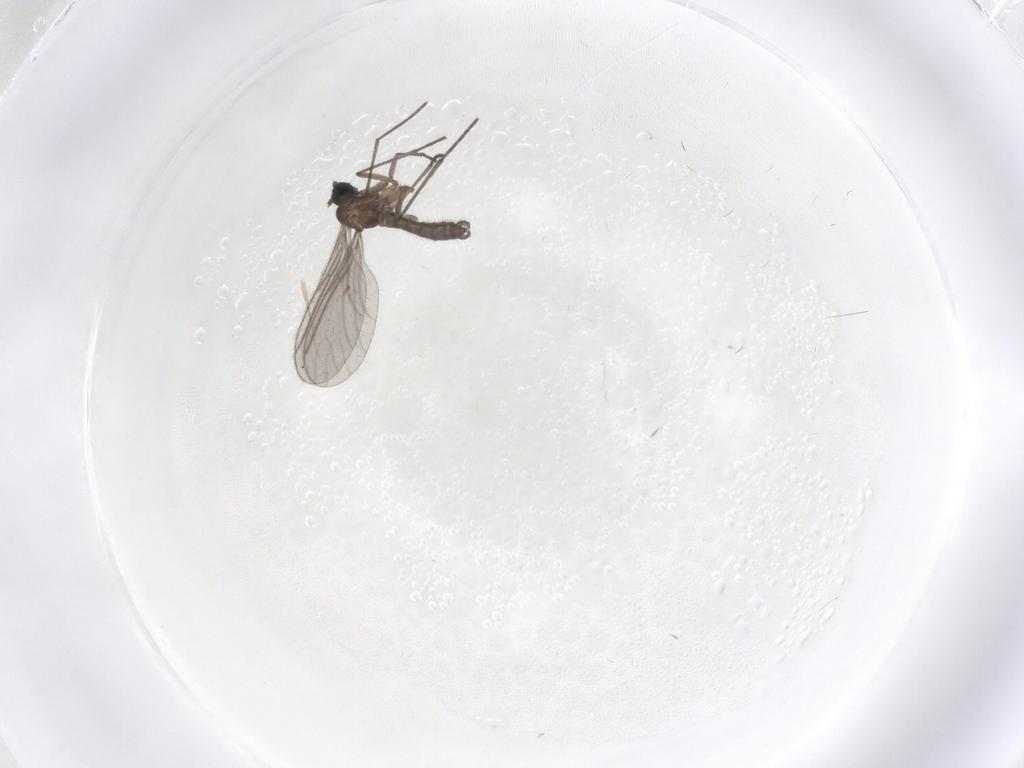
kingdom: Animalia
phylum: Arthropoda
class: Insecta
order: Diptera
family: Sciaridae
